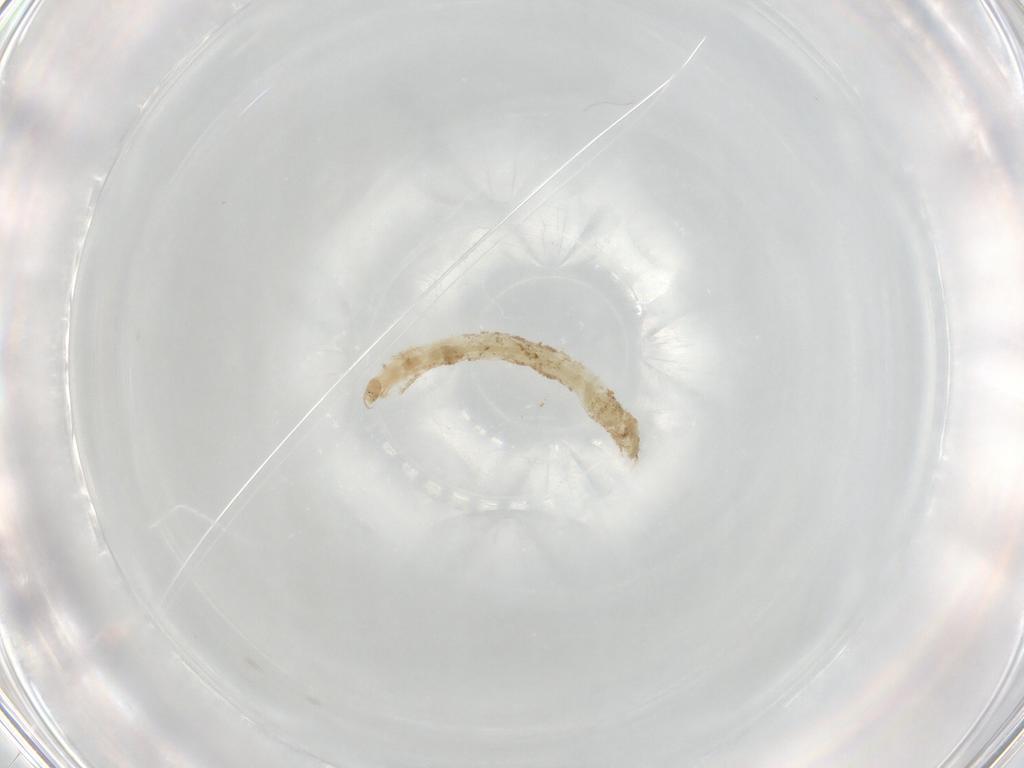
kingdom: Animalia
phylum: Arthropoda
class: Insecta
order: Diptera
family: Chironomidae
